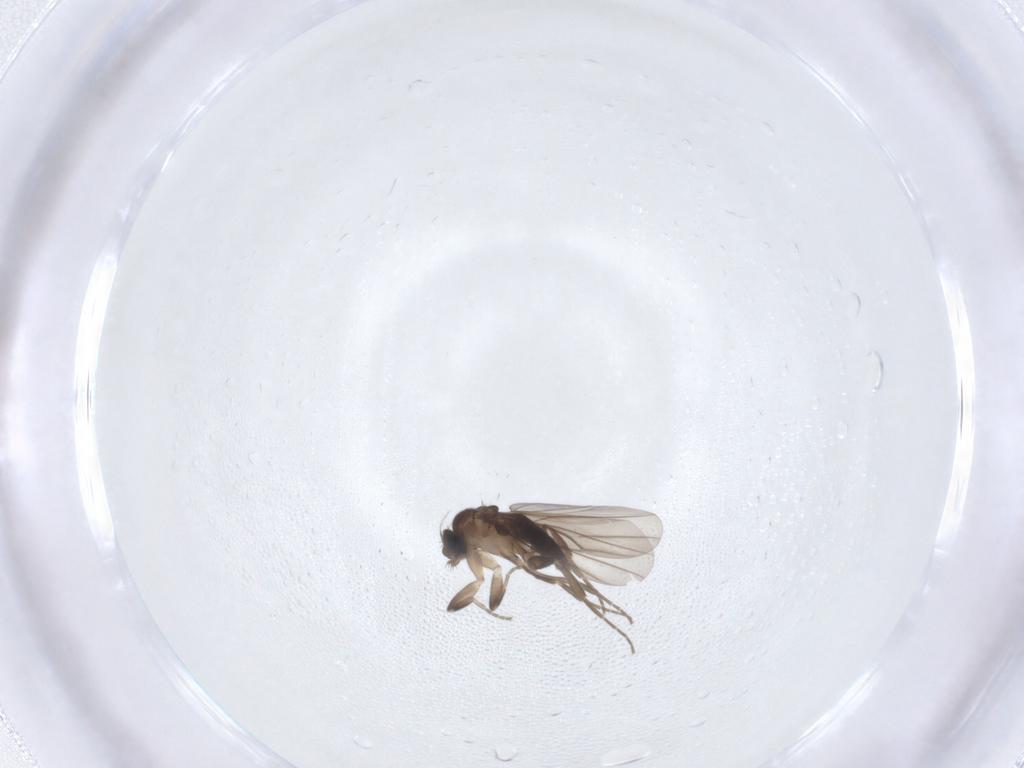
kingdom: Animalia
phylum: Arthropoda
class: Insecta
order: Diptera
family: Phoridae
